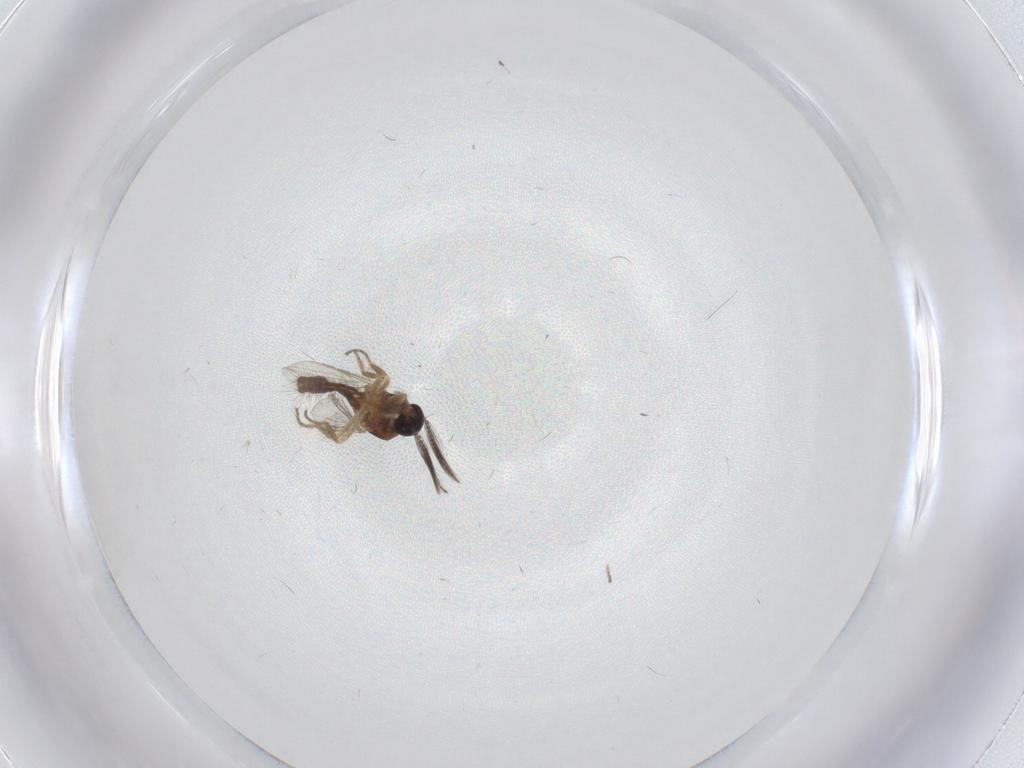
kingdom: Animalia
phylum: Arthropoda
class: Insecta
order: Diptera
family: Ceratopogonidae
